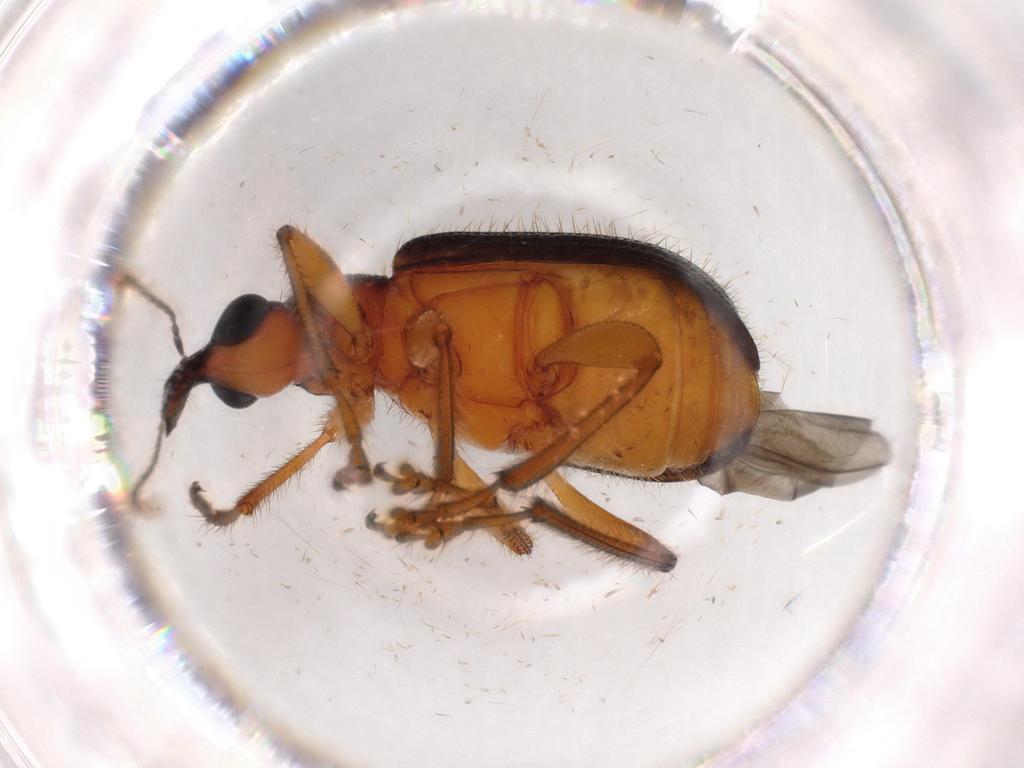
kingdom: Animalia
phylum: Arthropoda
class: Insecta
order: Coleoptera
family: Attelabidae
